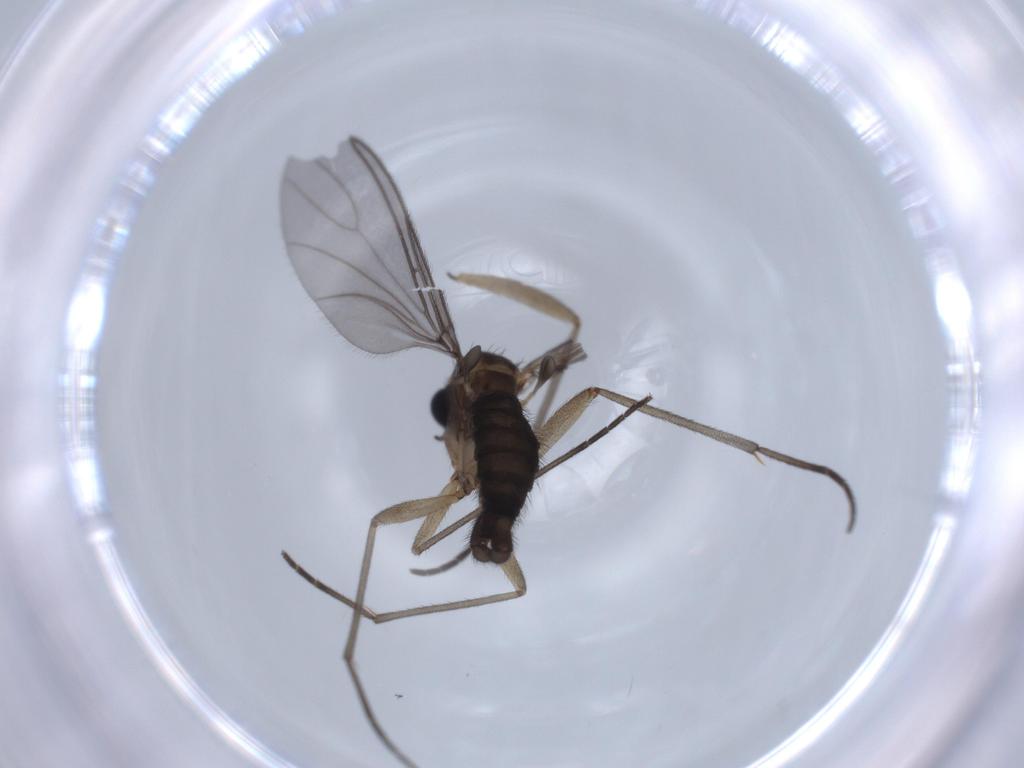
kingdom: Animalia
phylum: Arthropoda
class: Insecta
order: Diptera
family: Sciaridae
